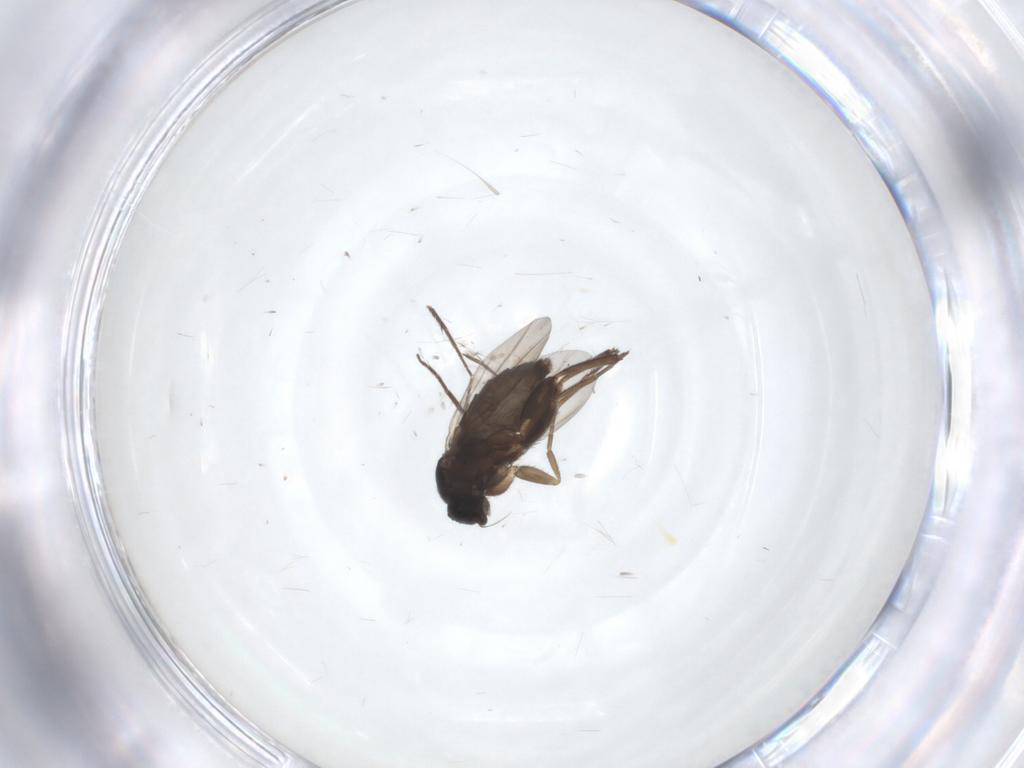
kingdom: Animalia
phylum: Arthropoda
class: Insecta
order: Diptera
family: Phoridae
